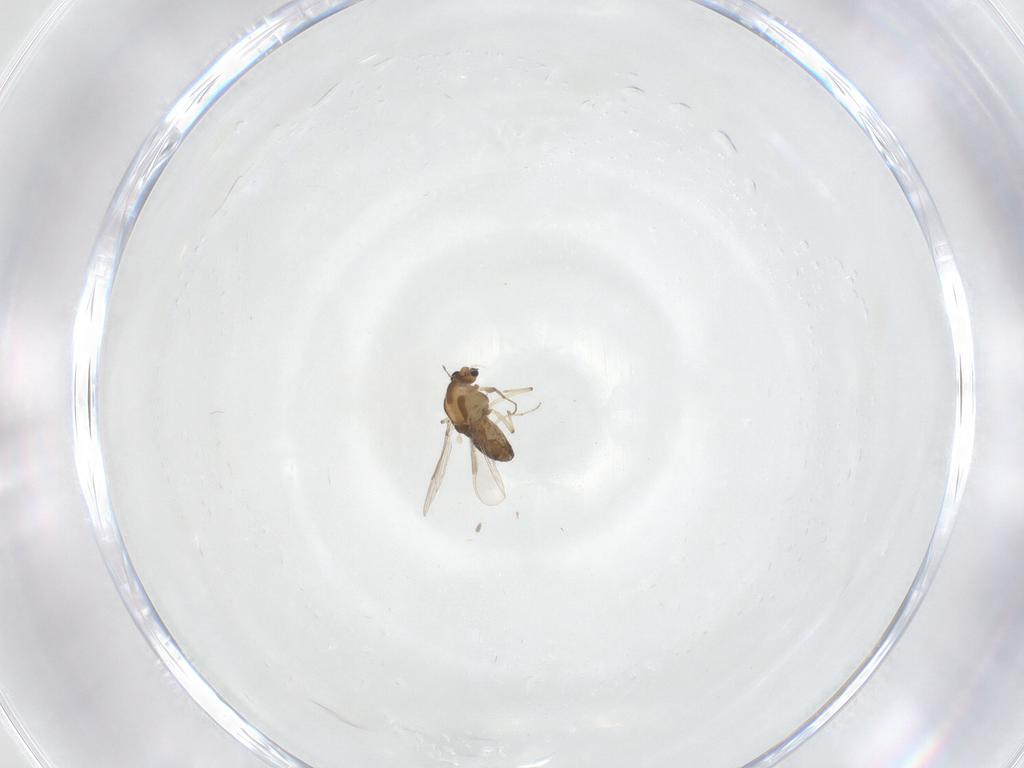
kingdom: Animalia
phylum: Arthropoda
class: Insecta
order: Diptera
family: Chironomidae
